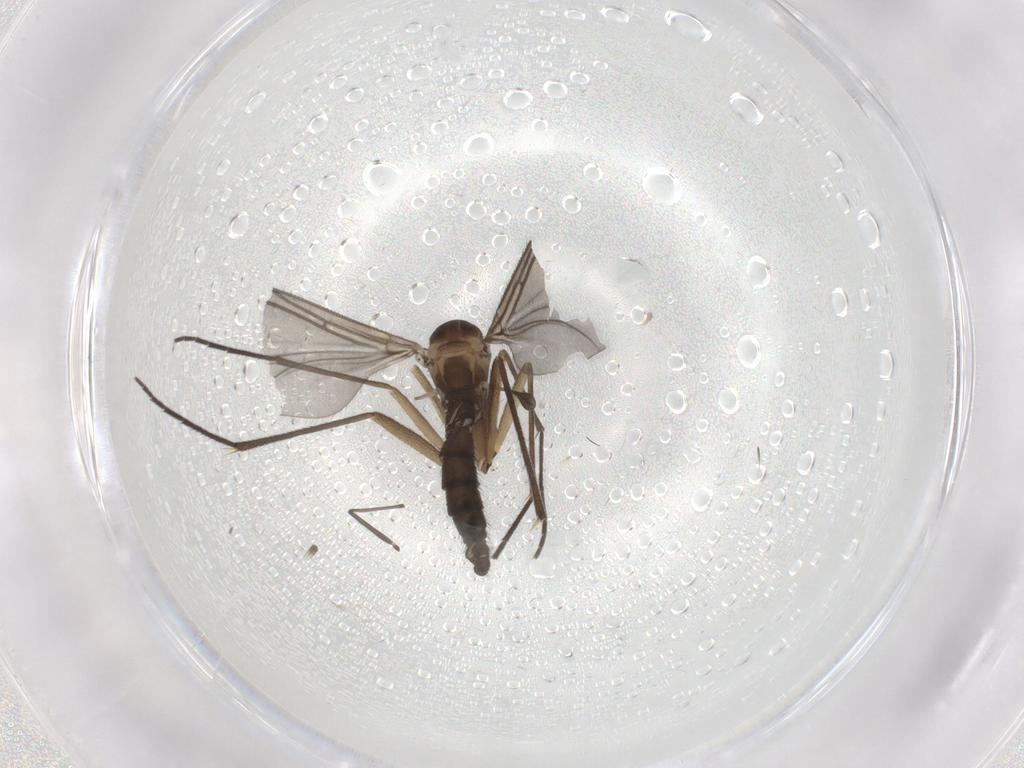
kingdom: Animalia
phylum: Arthropoda
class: Insecta
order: Diptera
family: Sciaridae
